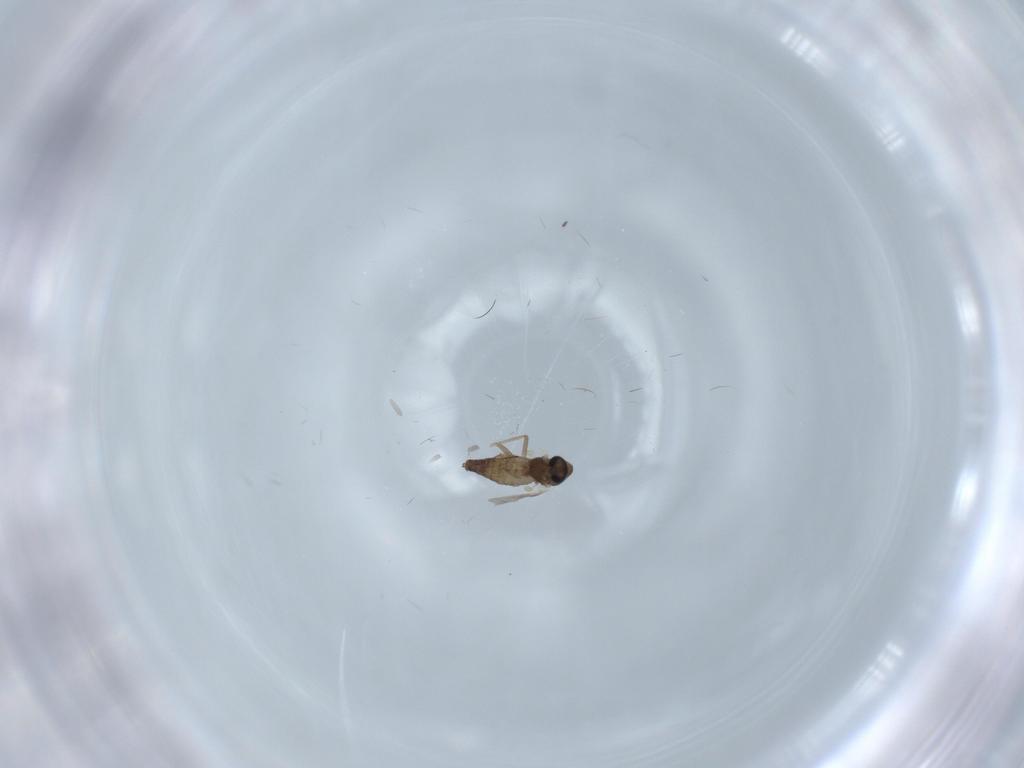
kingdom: Animalia
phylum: Arthropoda
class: Insecta
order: Diptera
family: Chironomidae
